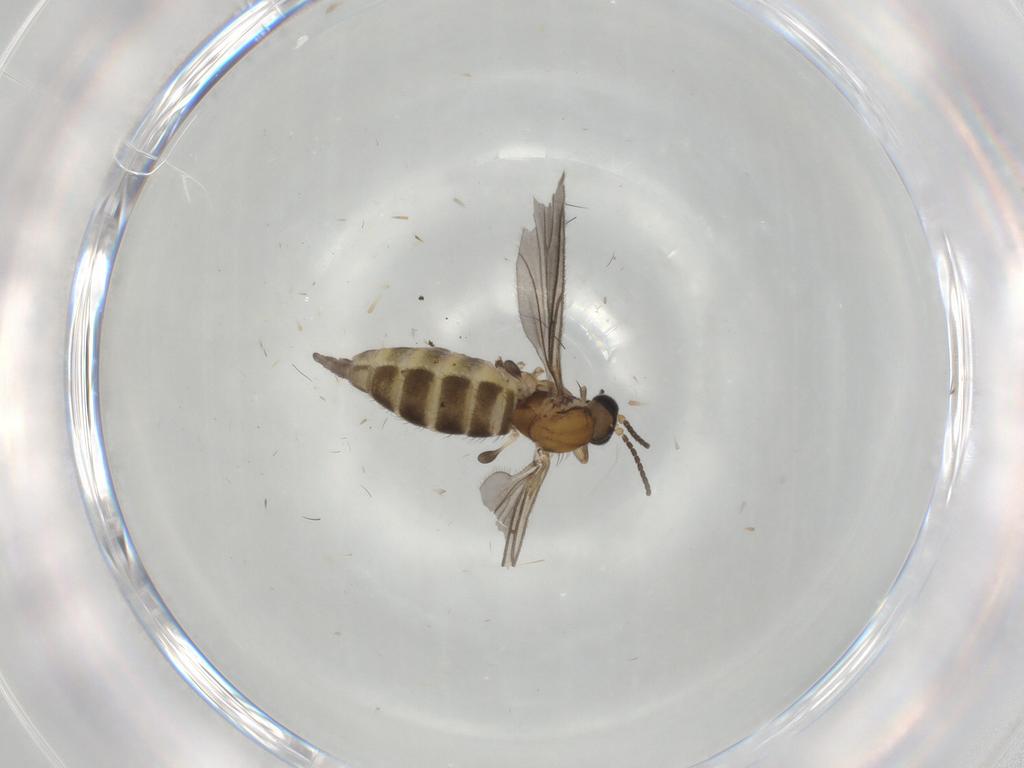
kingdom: Animalia
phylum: Arthropoda
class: Insecta
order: Diptera
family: Sciaridae
